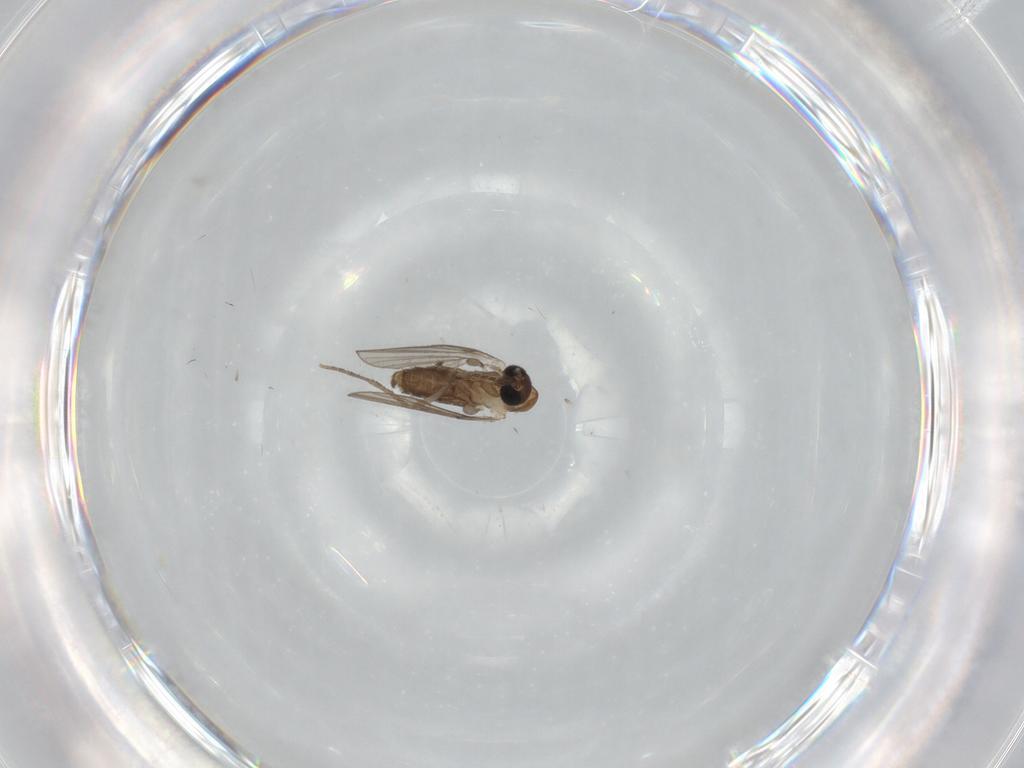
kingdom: Animalia
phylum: Arthropoda
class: Insecta
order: Diptera
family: Psychodidae
